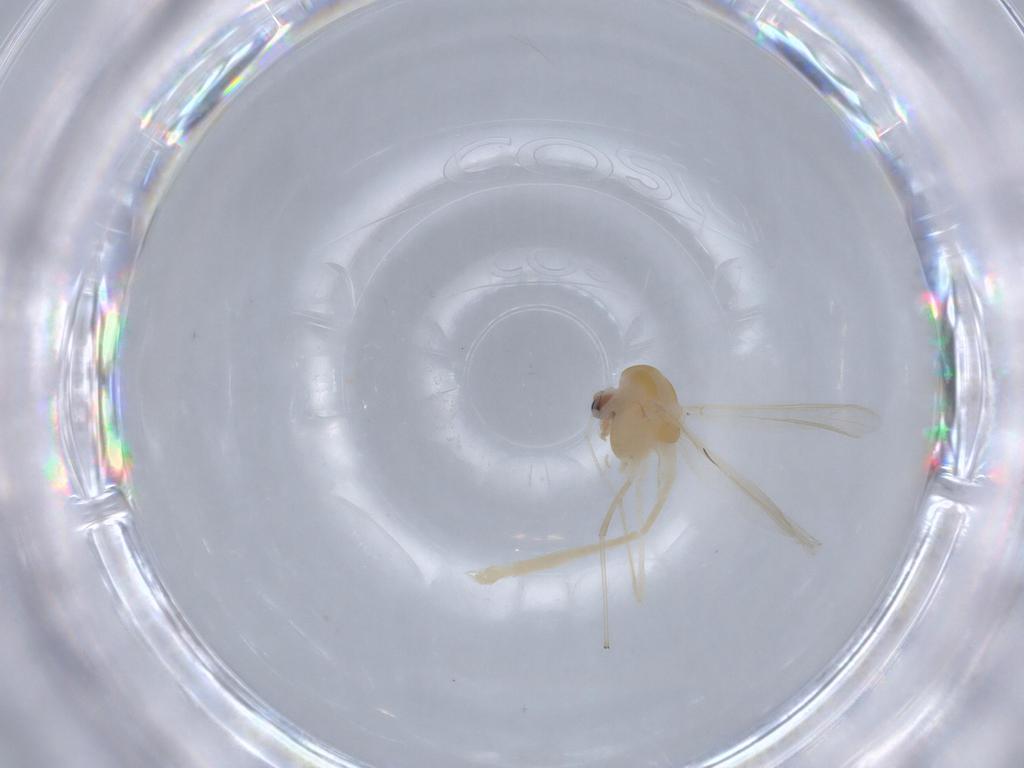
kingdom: Animalia
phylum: Arthropoda
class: Insecta
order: Diptera
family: Chironomidae
